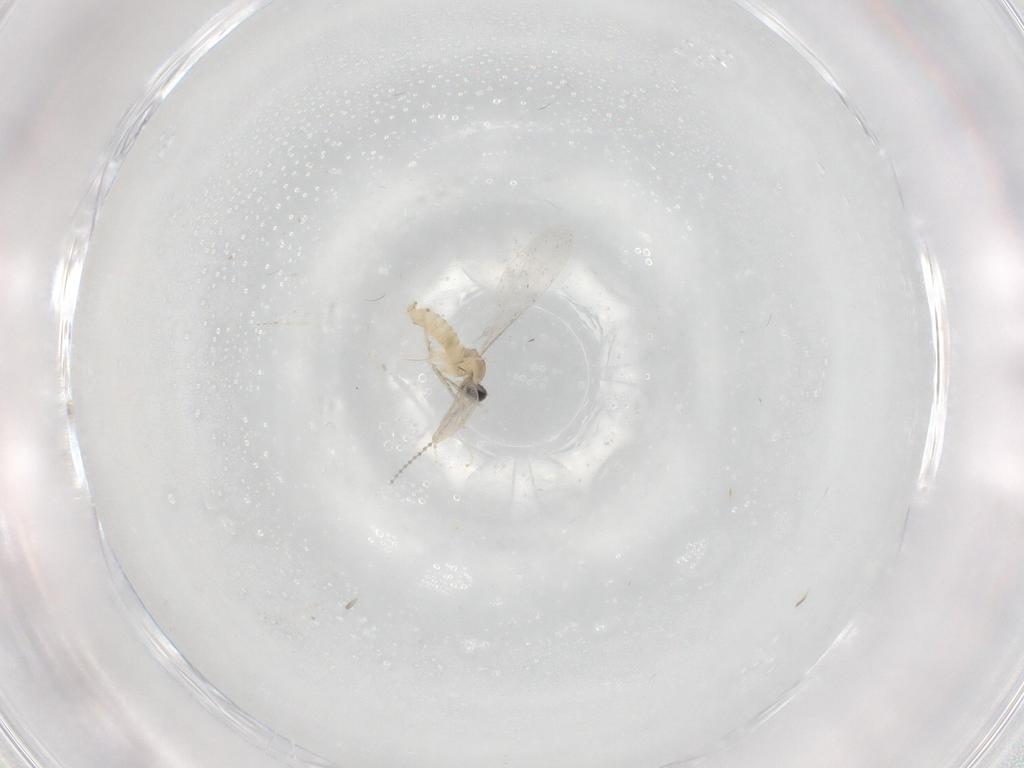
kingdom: Animalia
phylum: Arthropoda
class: Insecta
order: Diptera
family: Cecidomyiidae
